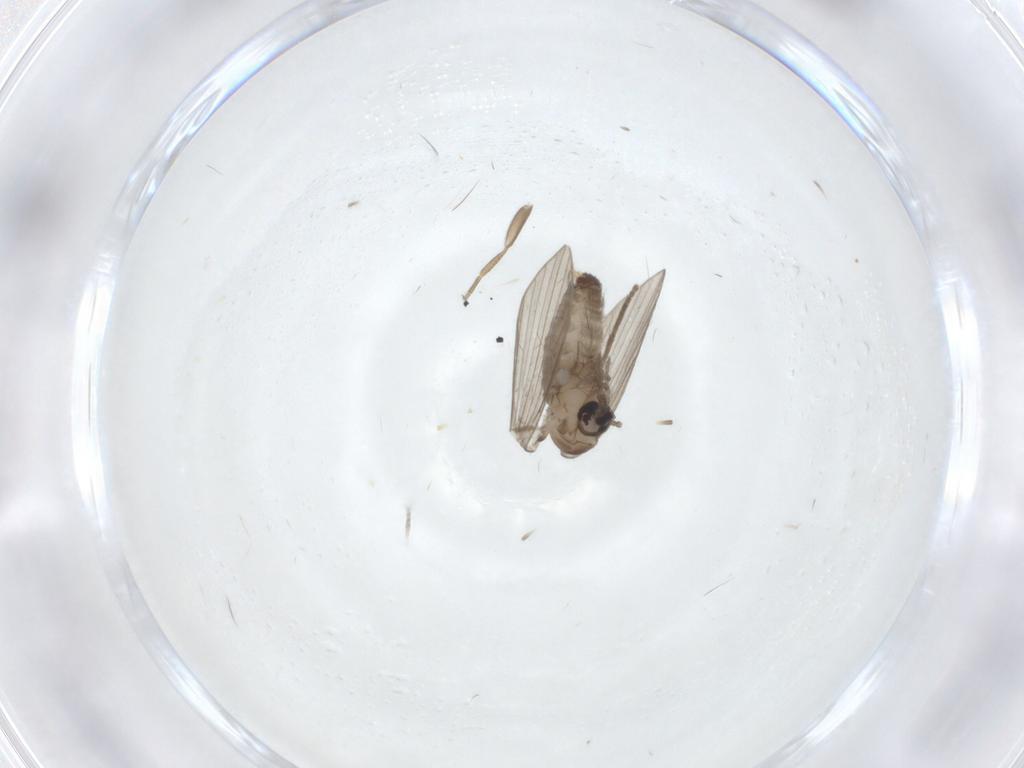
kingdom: Animalia
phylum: Arthropoda
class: Insecta
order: Diptera
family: Psychodidae
